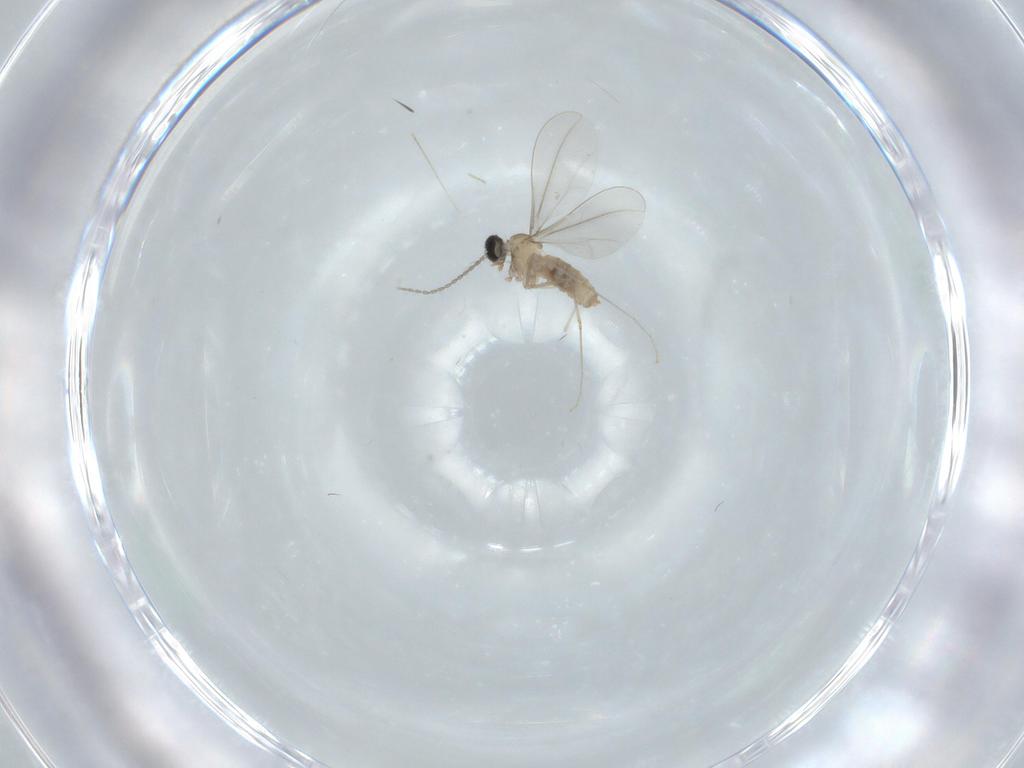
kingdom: Animalia
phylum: Arthropoda
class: Insecta
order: Diptera
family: Cecidomyiidae
